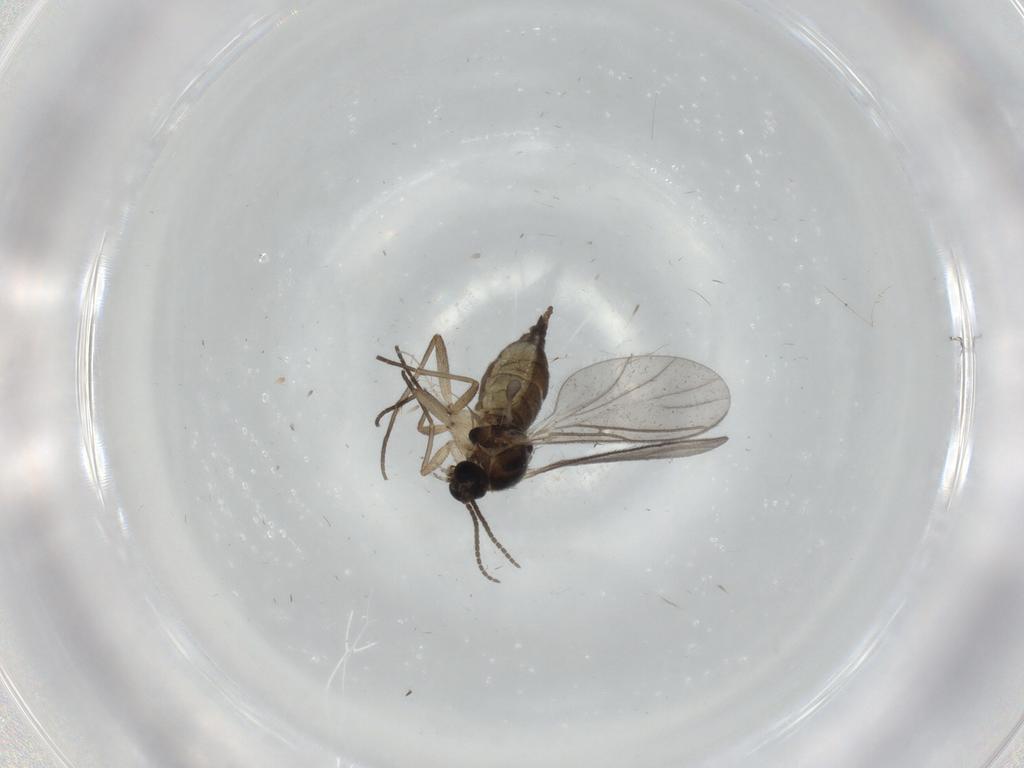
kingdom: Animalia
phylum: Arthropoda
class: Insecta
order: Diptera
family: Sciaridae
